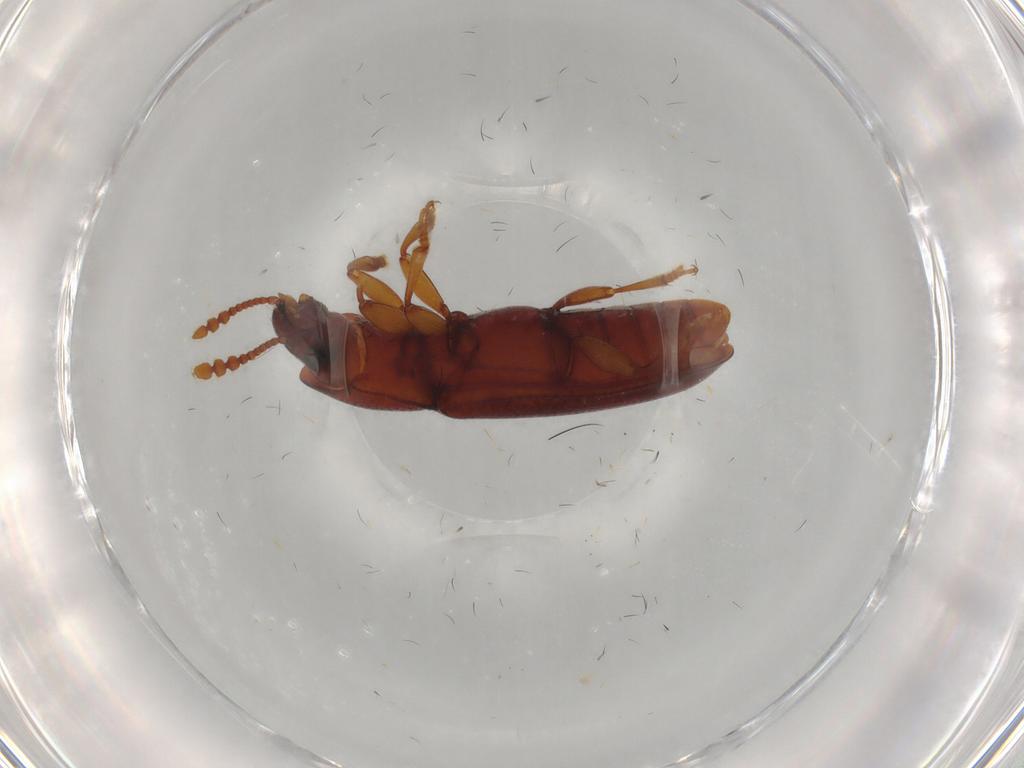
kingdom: Animalia
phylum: Arthropoda
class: Insecta
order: Coleoptera
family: Erotylidae
